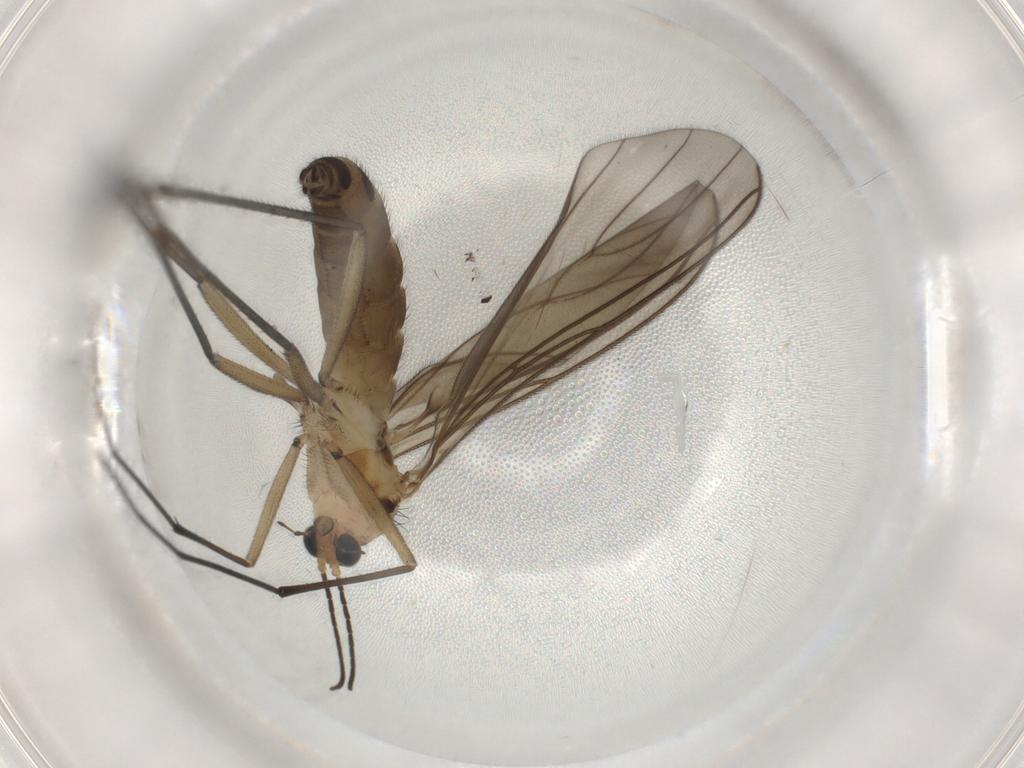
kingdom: Animalia
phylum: Arthropoda
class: Insecta
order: Diptera
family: Sciaridae
